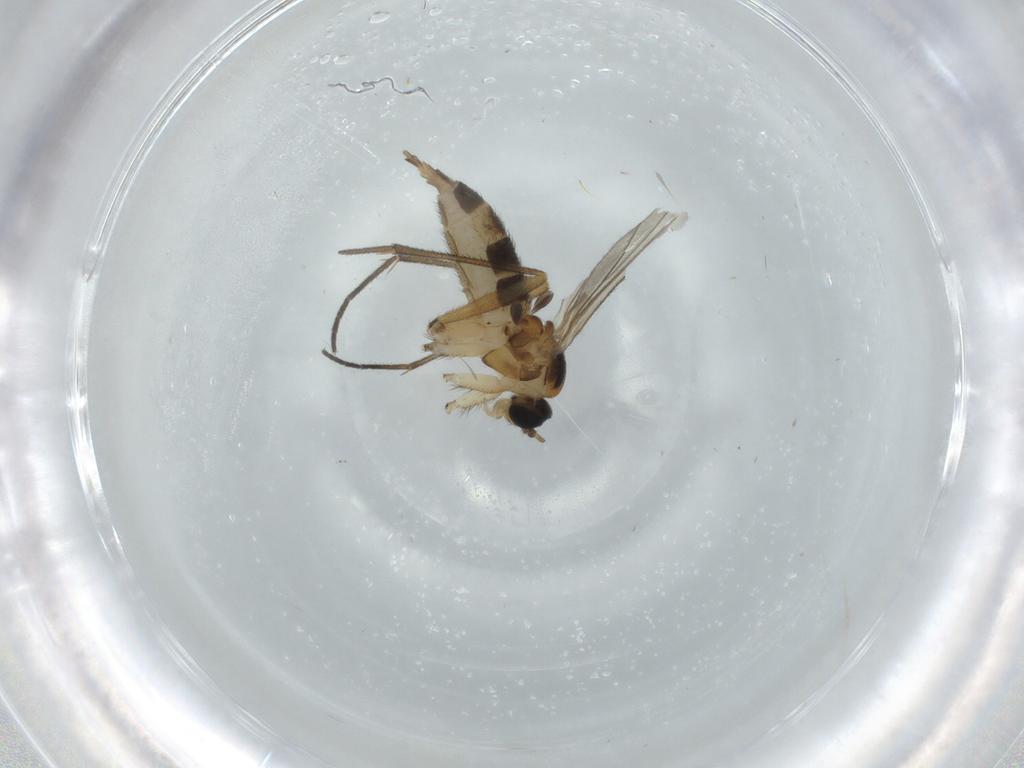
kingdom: Animalia
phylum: Arthropoda
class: Insecta
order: Diptera
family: Sciaridae
